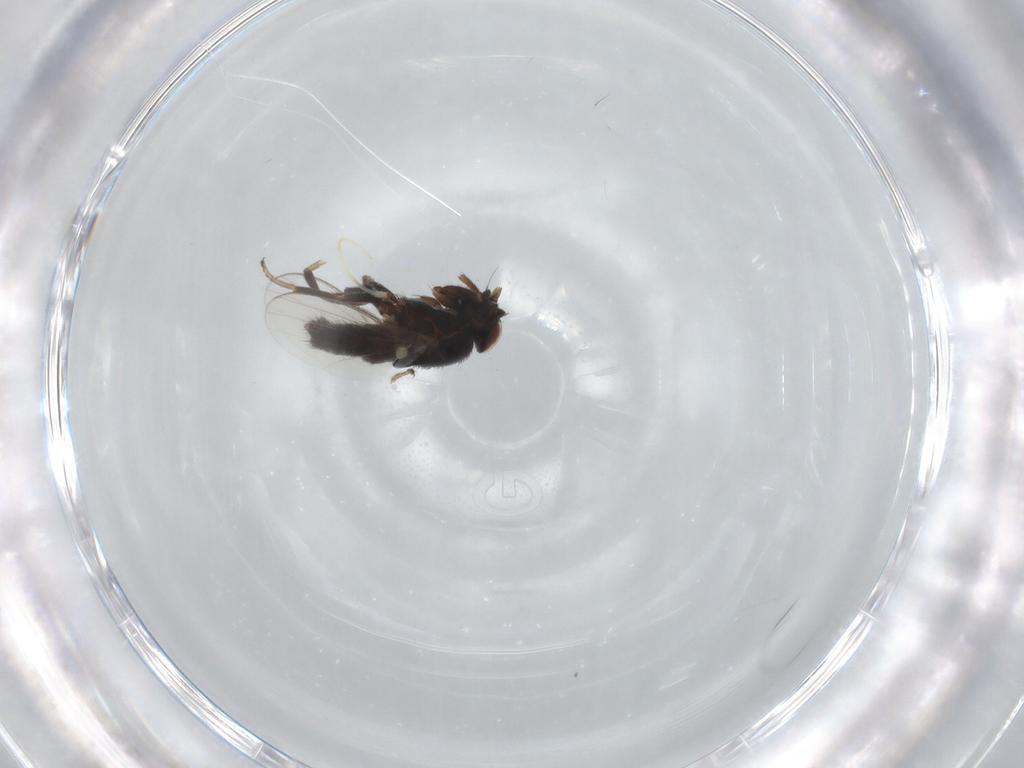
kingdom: Animalia
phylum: Arthropoda
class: Insecta
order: Diptera
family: Milichiidae
